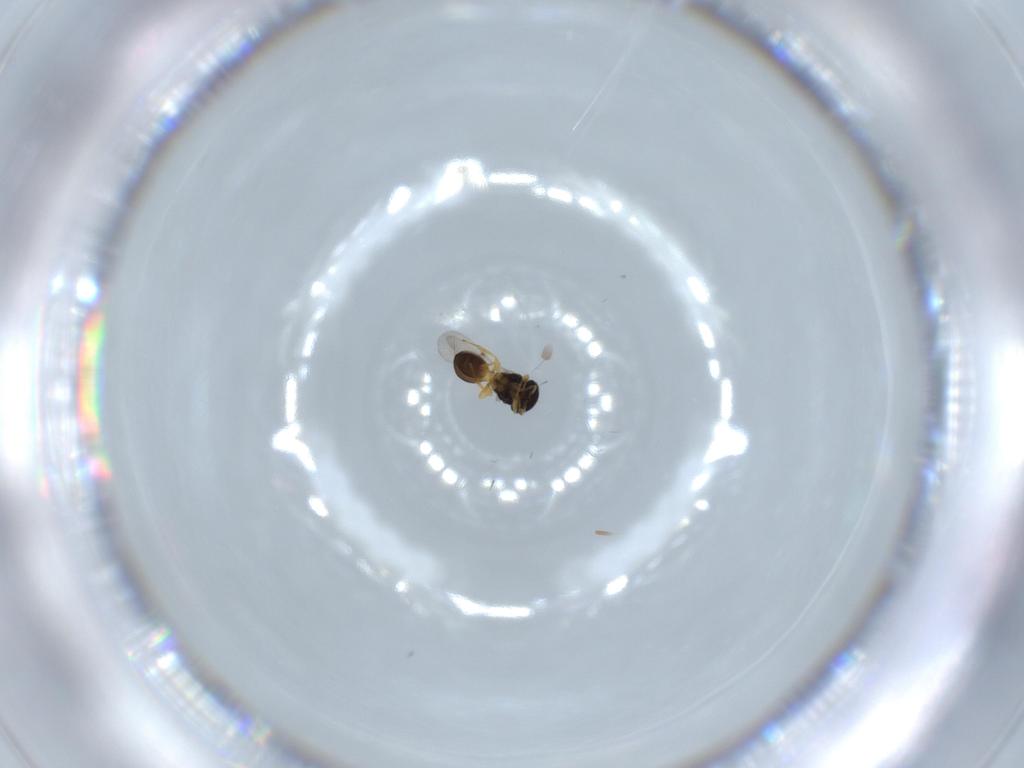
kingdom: Animalia
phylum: Arthropoda
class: Insecta
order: Hymenoptera
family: Scelionidae
